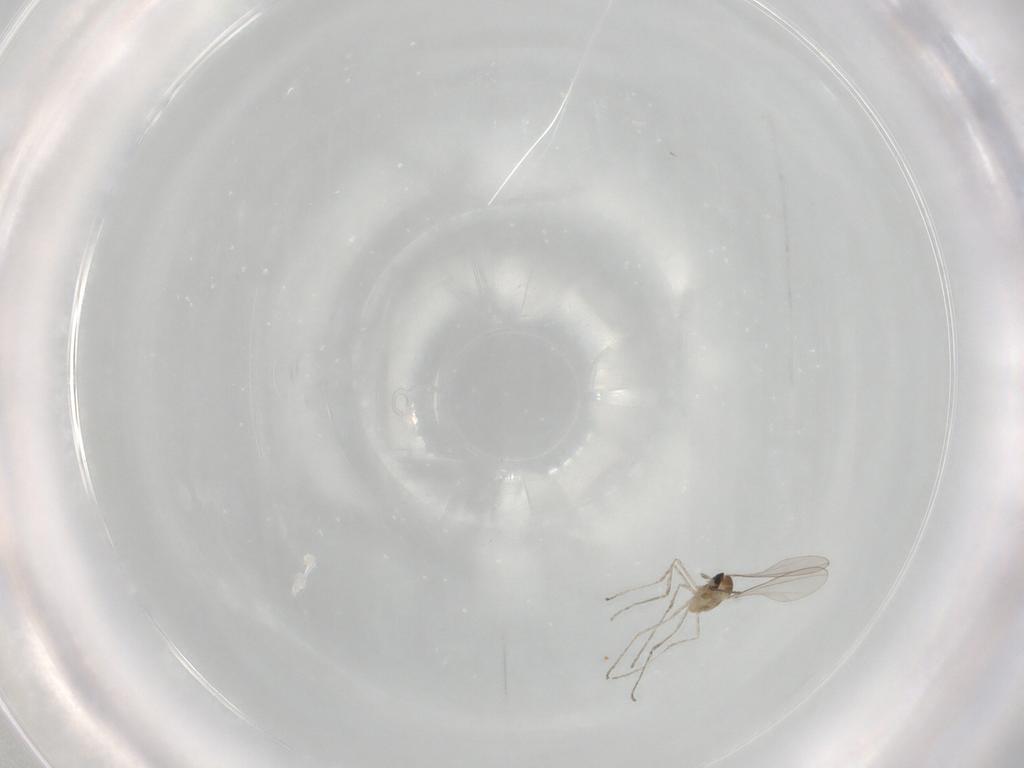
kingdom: Animalia
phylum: Arthropoda
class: Insecta
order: Diptera
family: Cecidomyiidae
